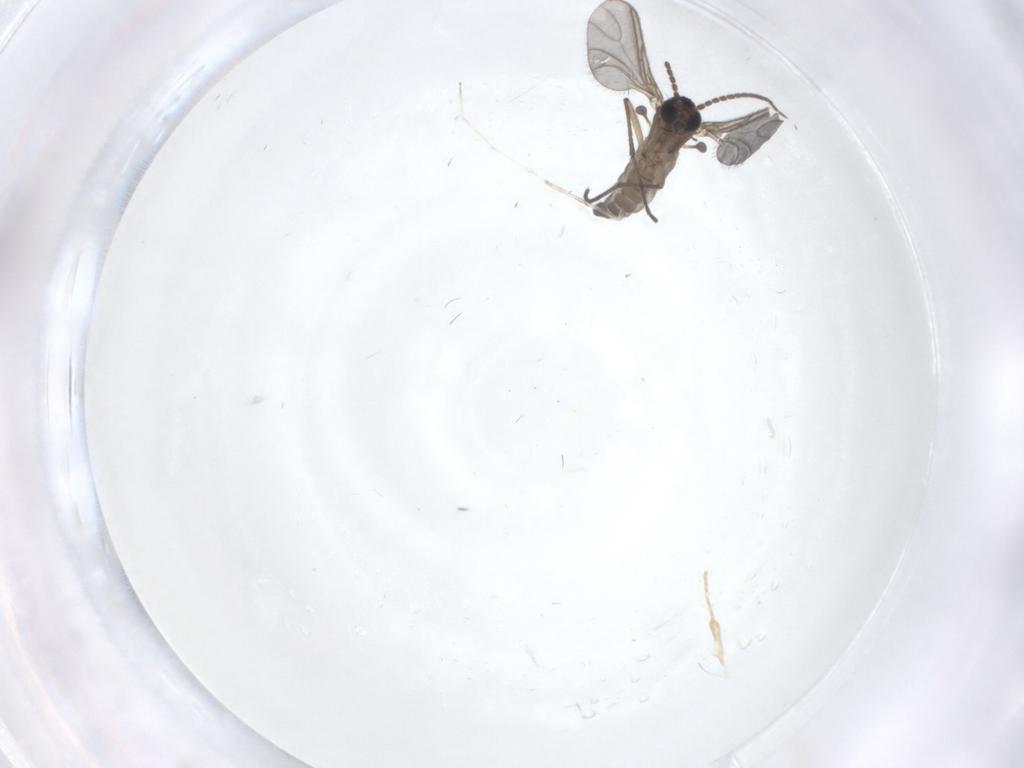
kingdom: Animalia
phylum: Arthropoda
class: Insecta
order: Diptera
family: Sciaridae
